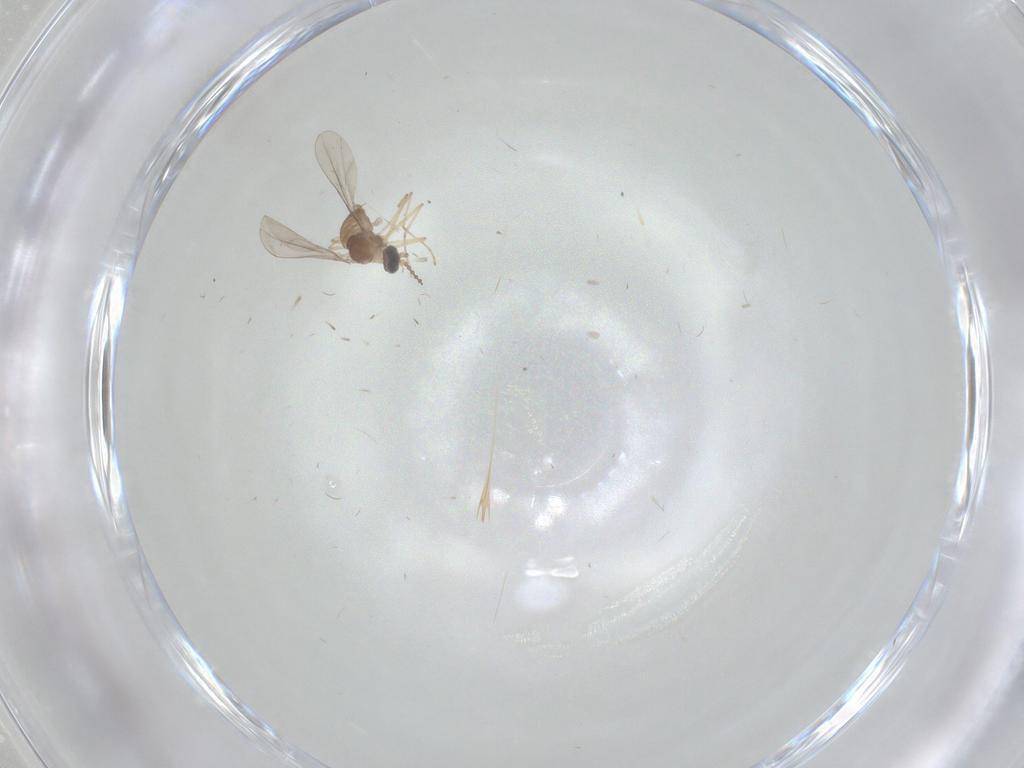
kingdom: Animalia
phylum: Arthropoda
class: Insecta
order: Diptera
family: Cecidomyiidae
